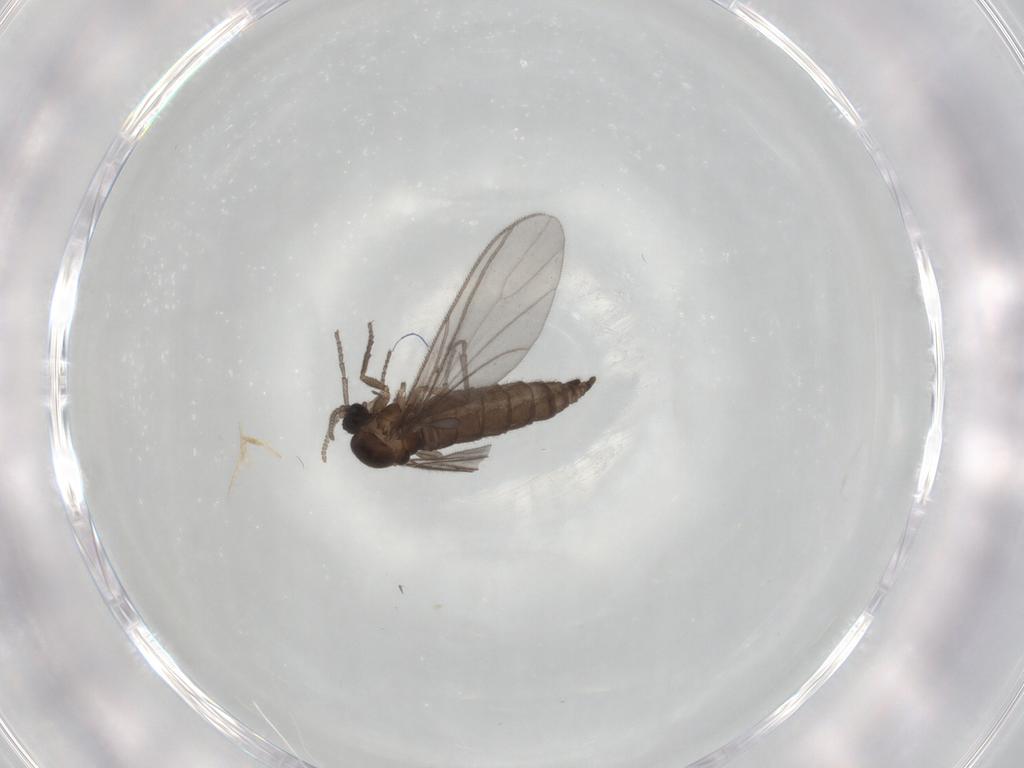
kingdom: Animalia
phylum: Arthropoda
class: Insecta
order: Diptera
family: Sciaridae
